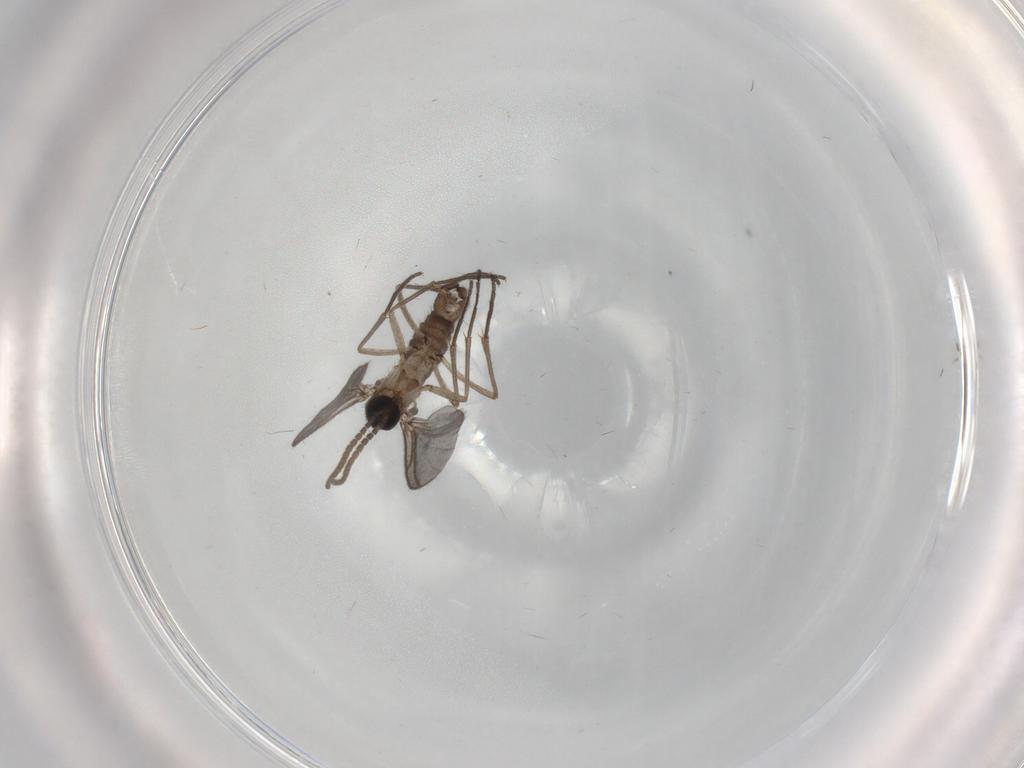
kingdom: Animalia
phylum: Arthropoda
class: Insecta
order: Diptera
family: Cecidomyiidae
